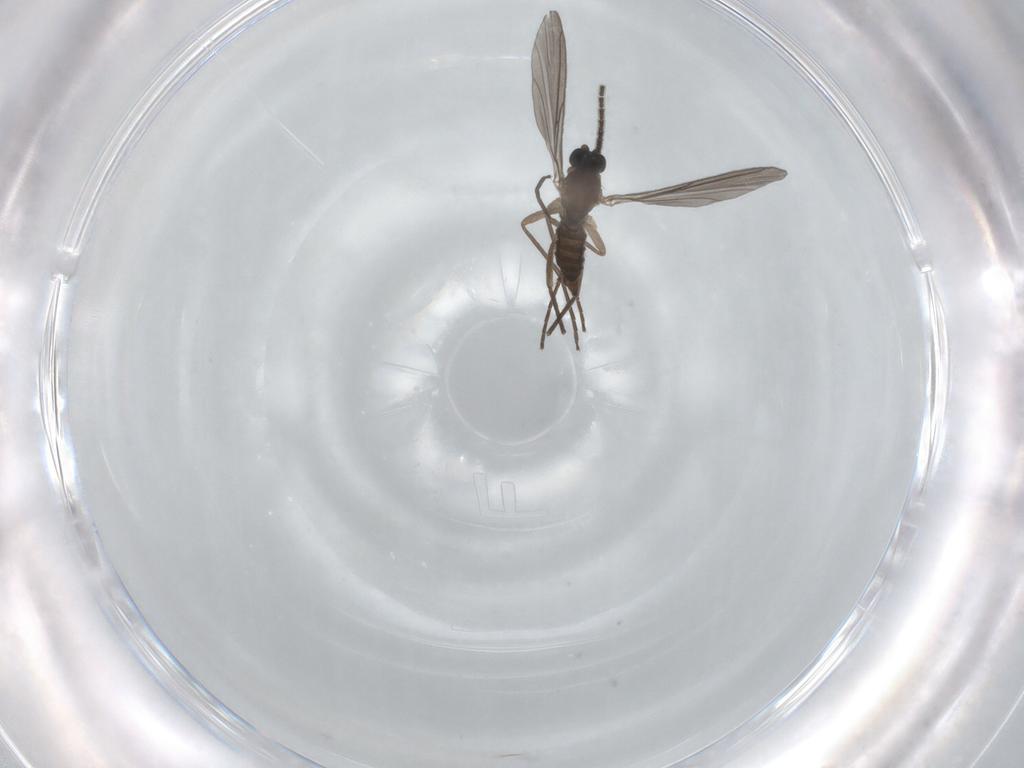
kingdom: Animalia
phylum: Arthropoda
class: Insecta
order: Diptera
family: Sciaridae
